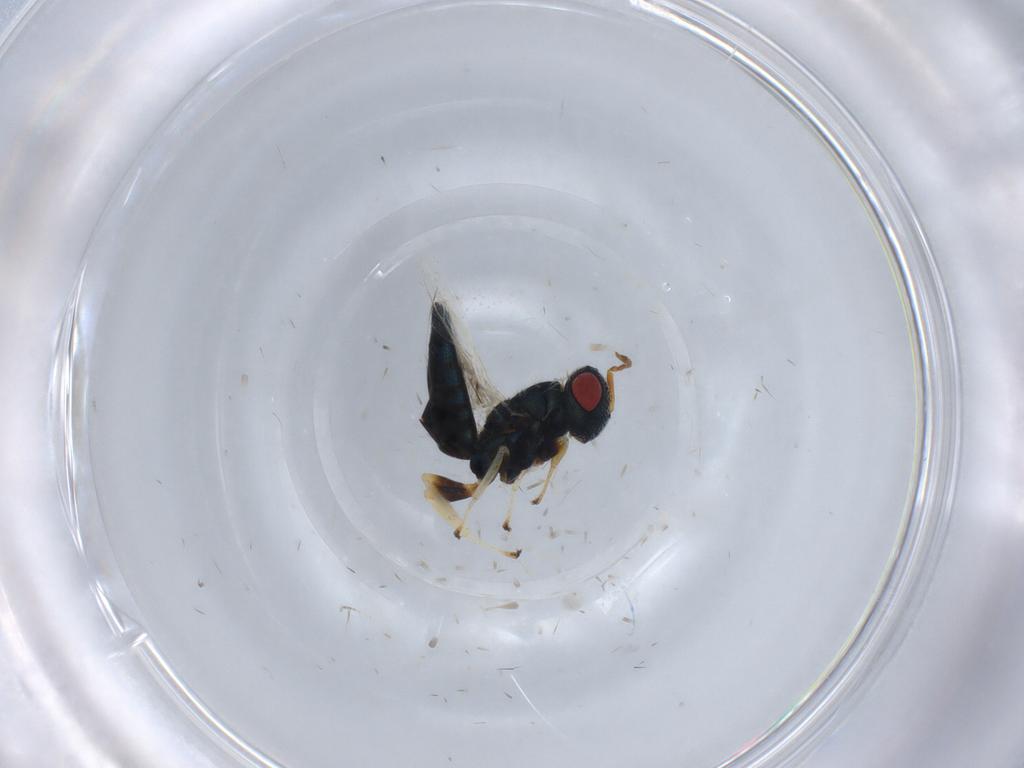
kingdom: Animalia
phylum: Arthropoda
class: Insecta
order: Hymenoptera
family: Pteromalidae
